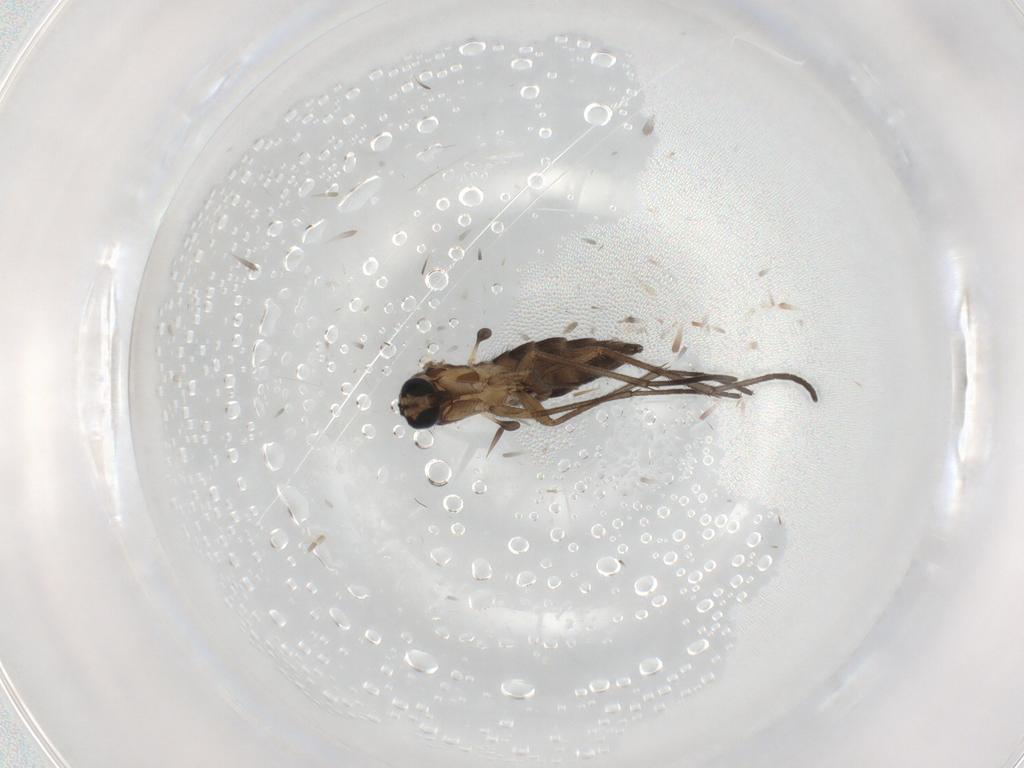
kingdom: Animalia
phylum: Arthropoda
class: Insecta
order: Diptera
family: Sciaridae
